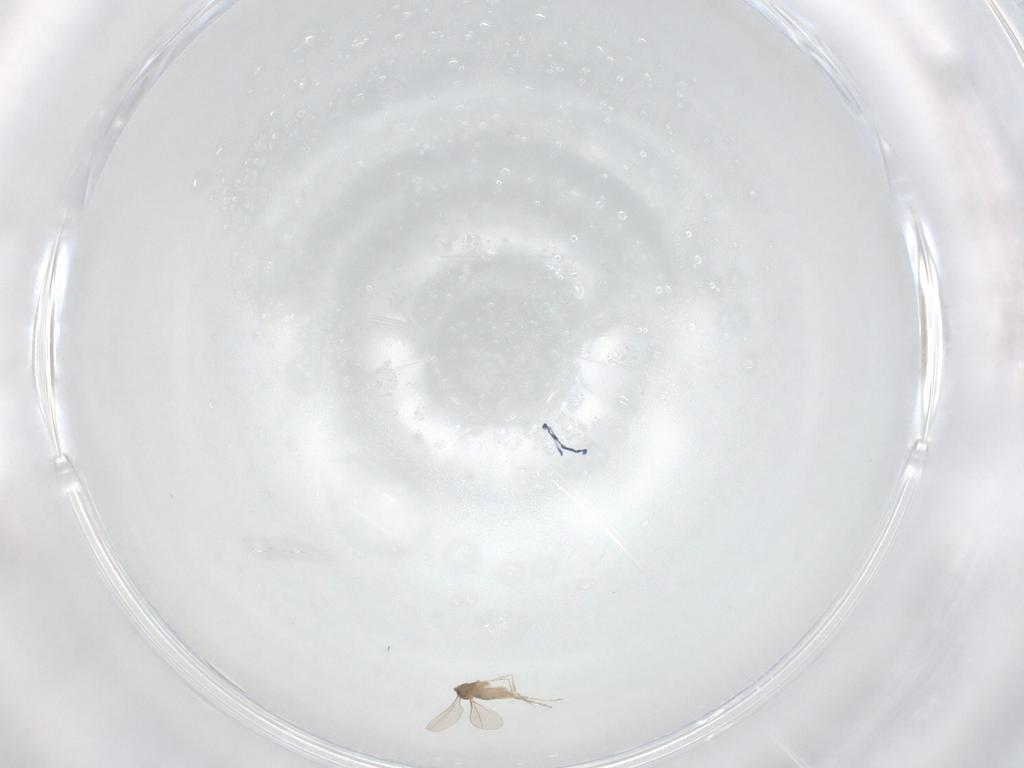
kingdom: Animalia
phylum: Arthropoda
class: Insecta
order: Diptera
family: Cecidomyiidae
